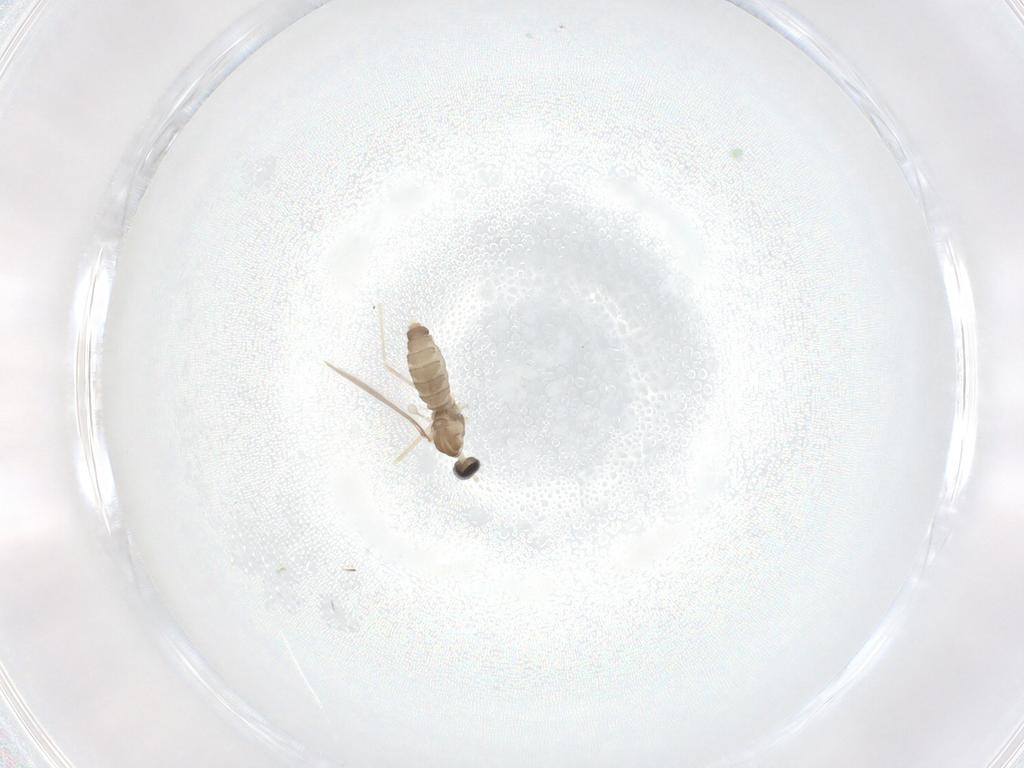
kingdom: Animalia
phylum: Arthropoda
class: Insecta
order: Diptera
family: Cecidomyiidae
